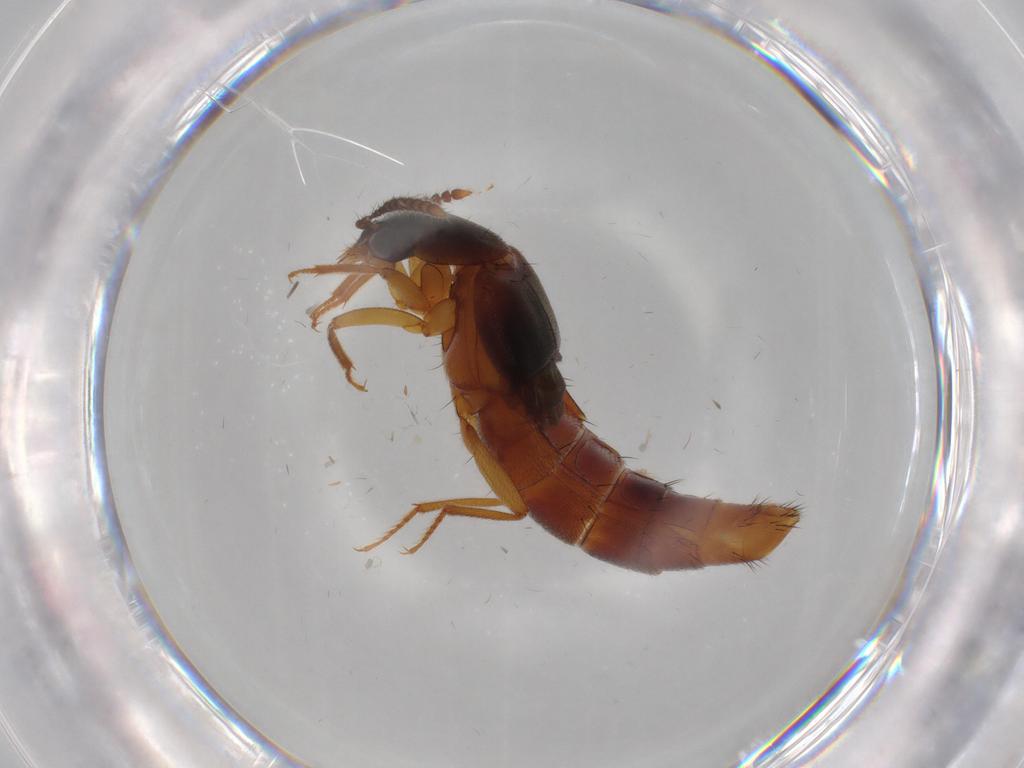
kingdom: Animalia
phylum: Arthropoda
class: Insecta
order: Coleoptera
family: Staphylinidae
